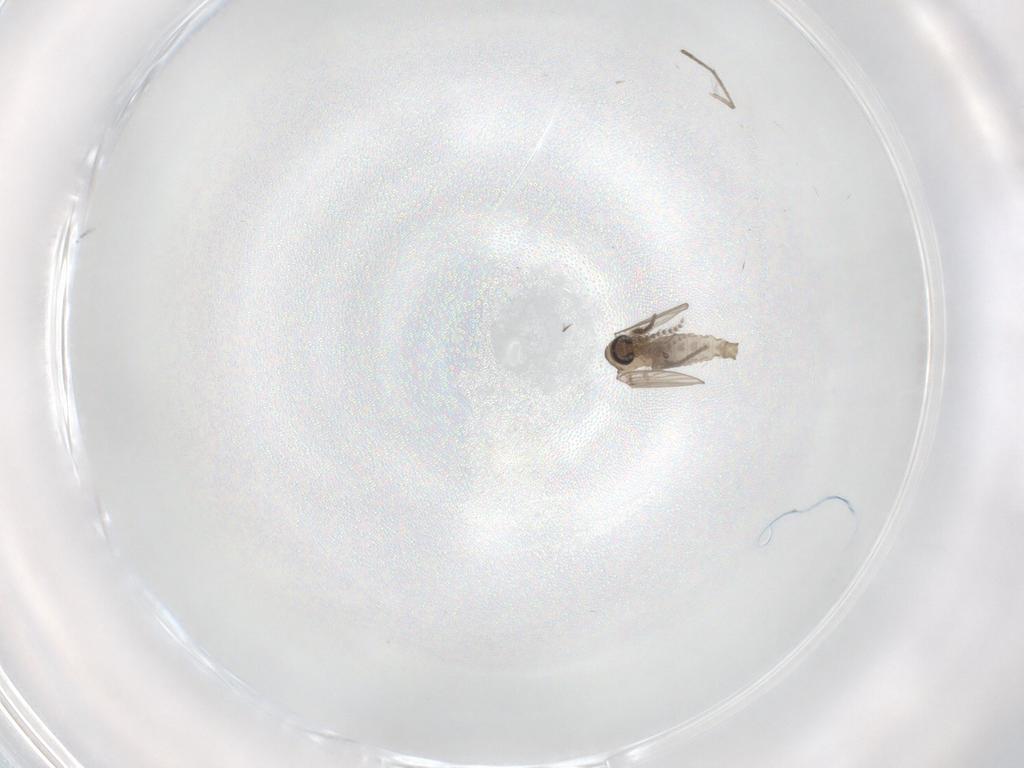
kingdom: Animalia
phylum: Arthropoda
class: Insecta
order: Diptera
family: Psychodidae
